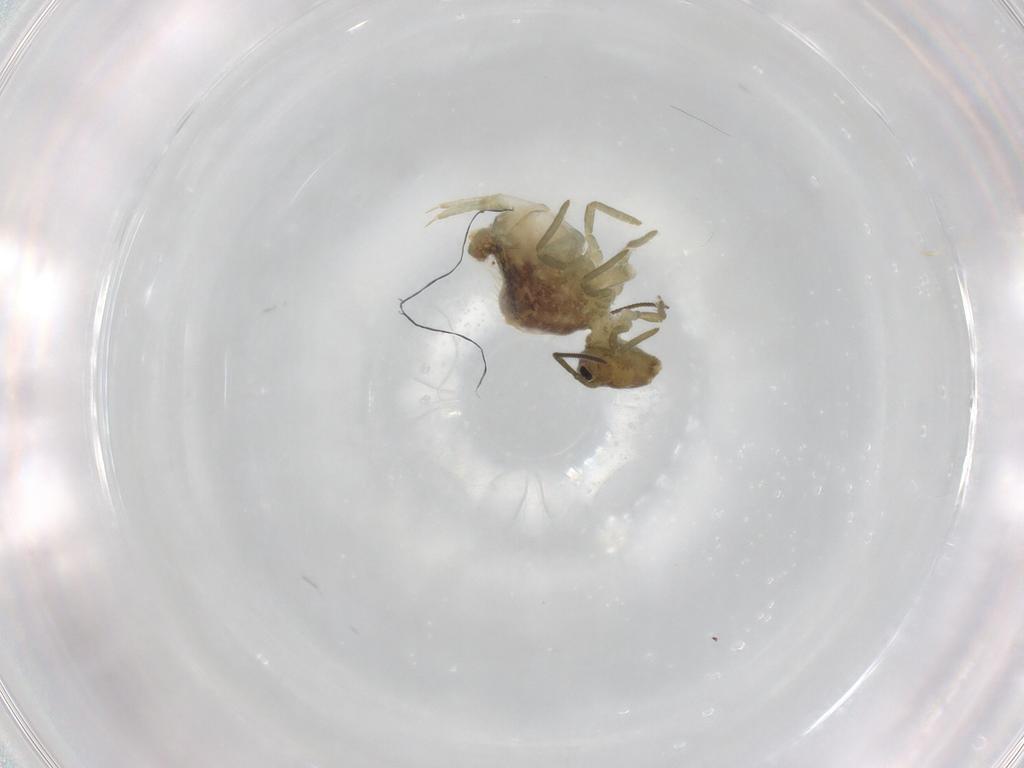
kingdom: Animalia
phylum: Arthropoda
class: Collembola
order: Symphypleona
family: Sminthuridae
